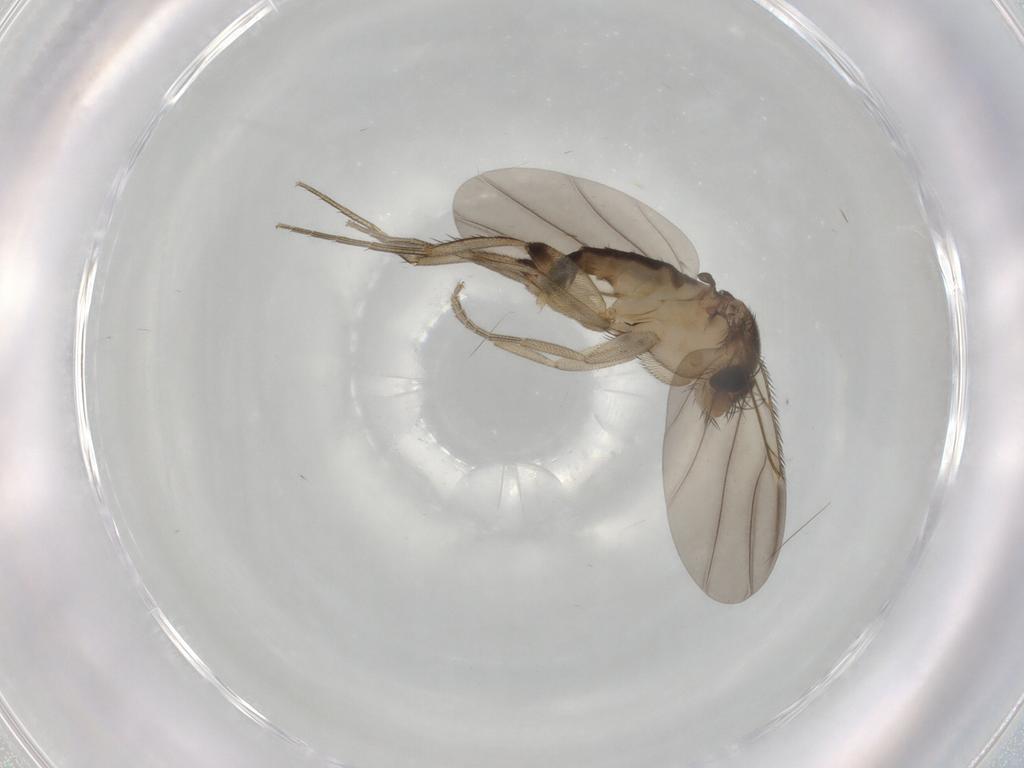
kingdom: Animalia
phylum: Arthropoda
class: Insecta
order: Diptera
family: Phoridae
